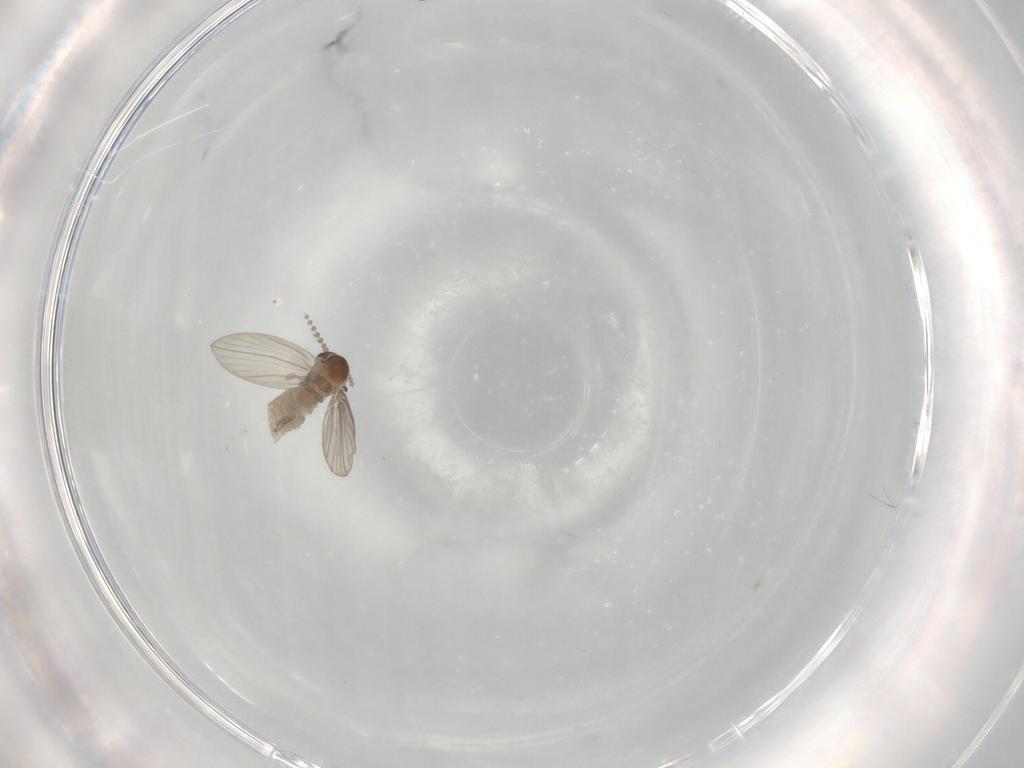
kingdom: Animalia
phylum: Arthropoda
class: Insecta
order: Diptera
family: Psychodidae
